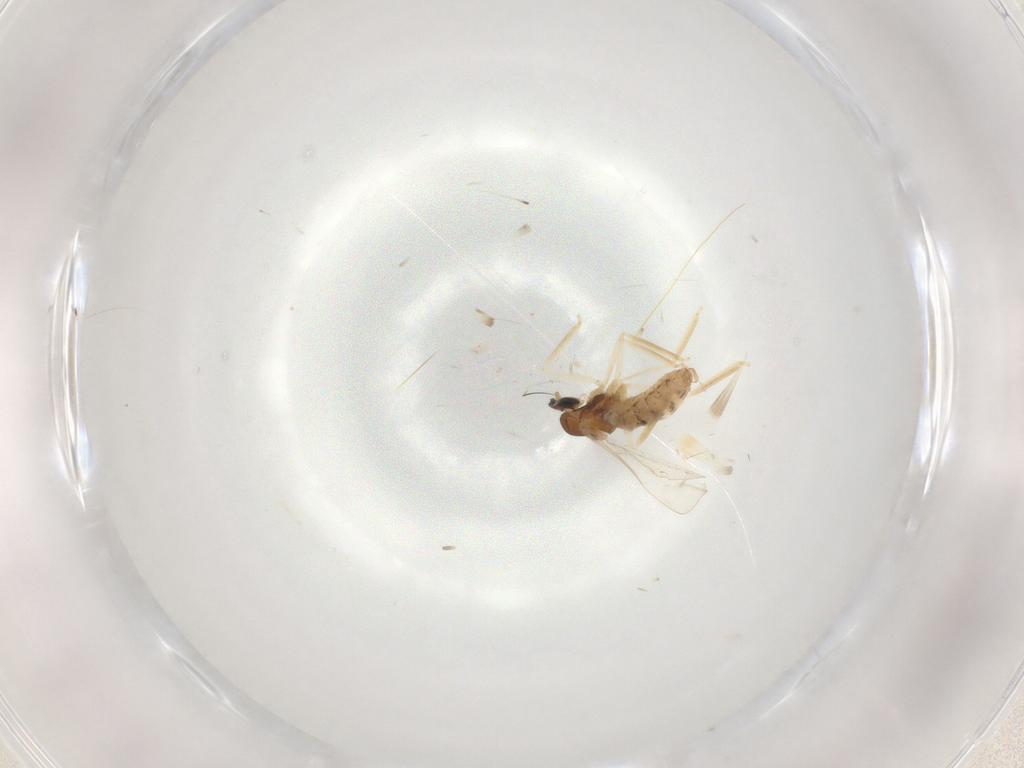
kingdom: Animalia
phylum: Arthropoda
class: Insecta
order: Diptera
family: Cecidomyiidae
